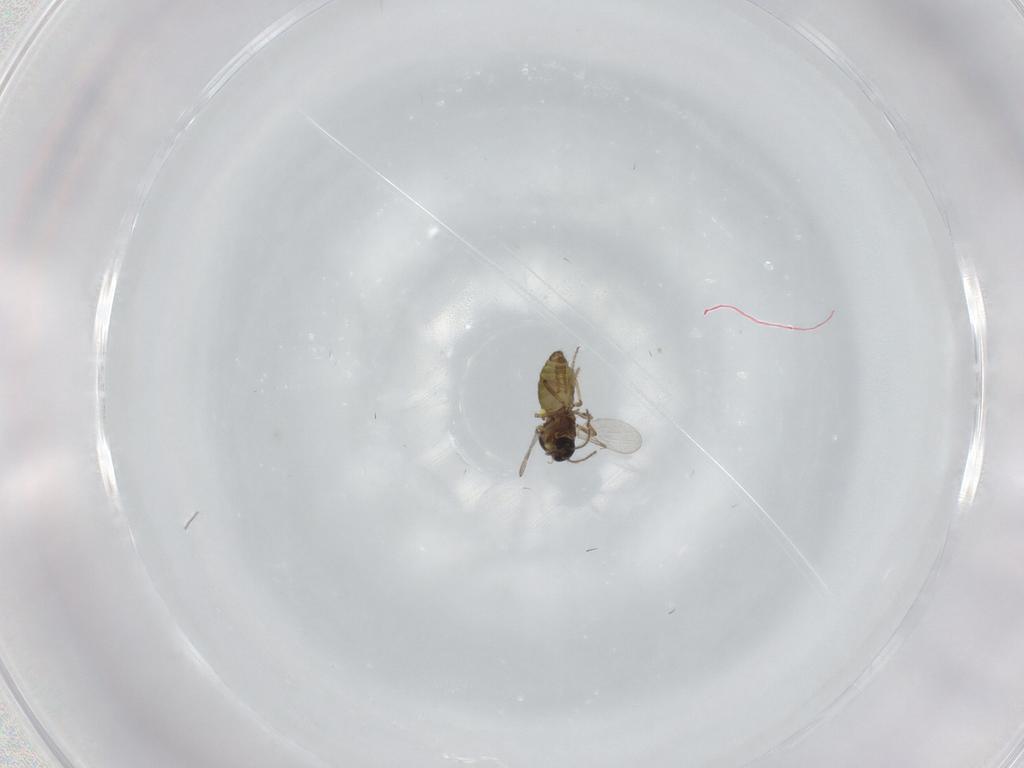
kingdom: Animalia
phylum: Arthropoda
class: Insecta
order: Diptera
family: Ceratopogonidae
